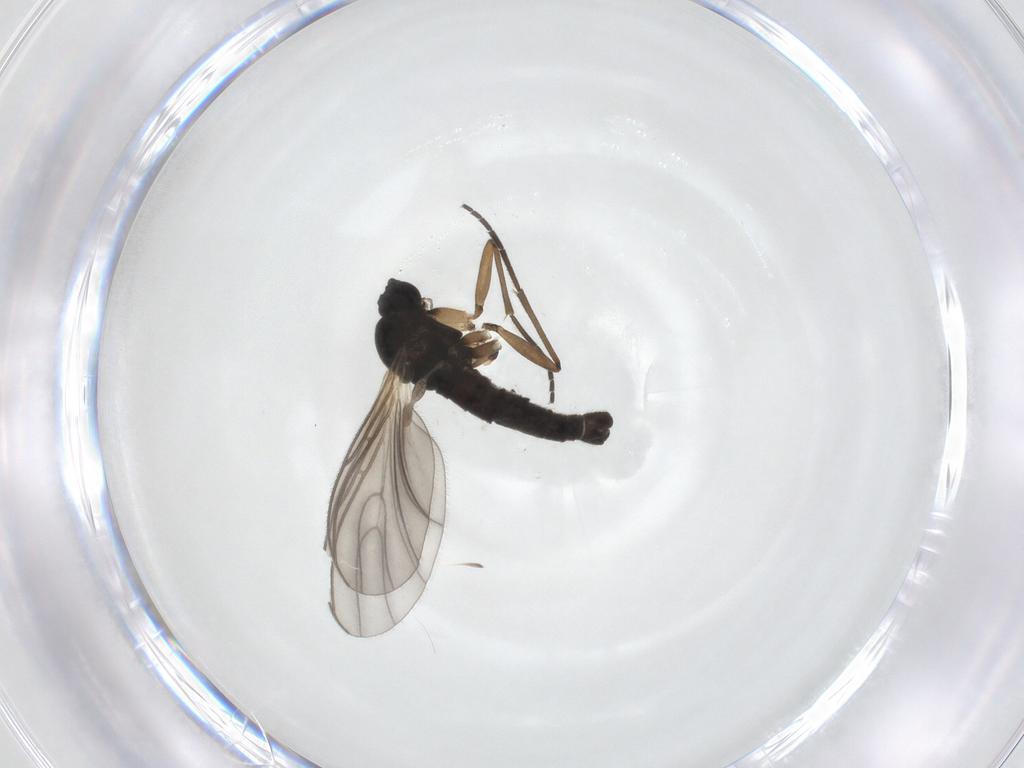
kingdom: Animalia
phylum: Arthropoda
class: Insecta
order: Diptera
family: Sciaridae
